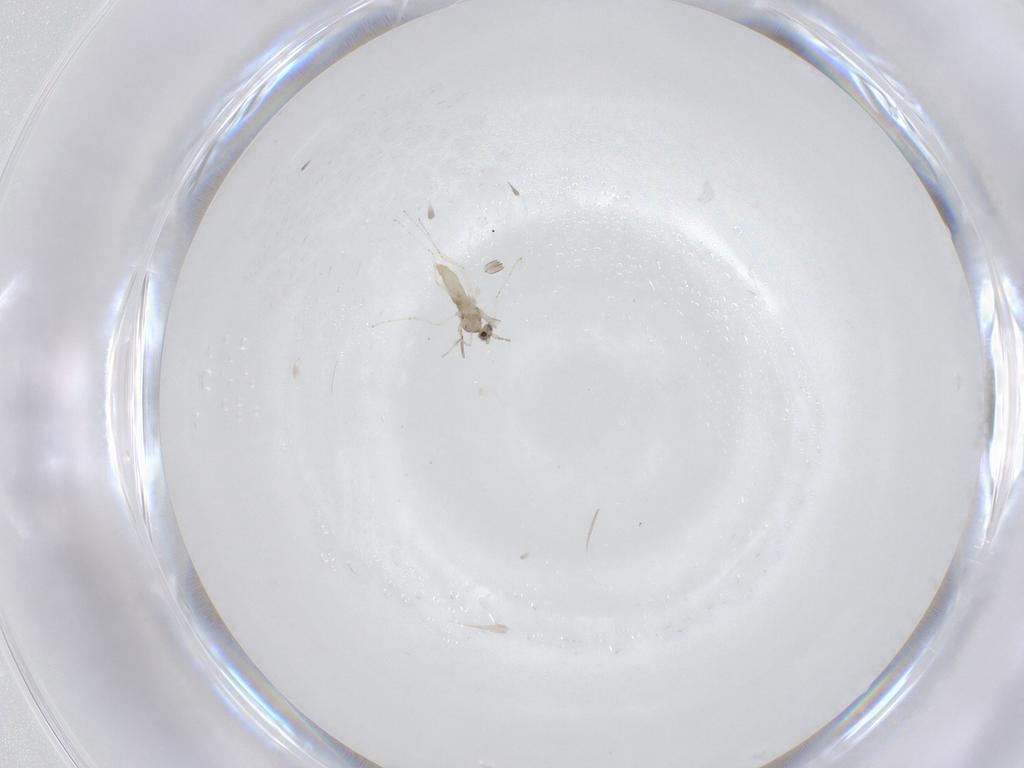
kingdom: Animalia
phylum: Arthropoda
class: Insecta
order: Diptera
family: Cecidomyiidae
